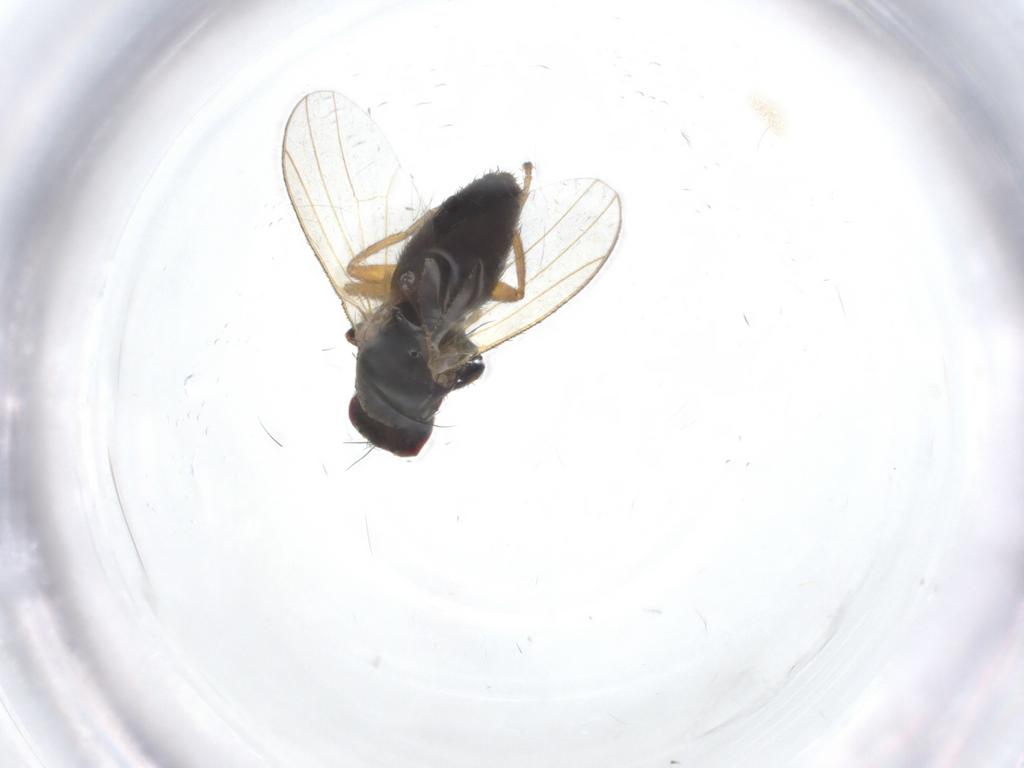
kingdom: Animalia
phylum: Arthropoda
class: Insecta
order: Diptera
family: Heleomyzidae
